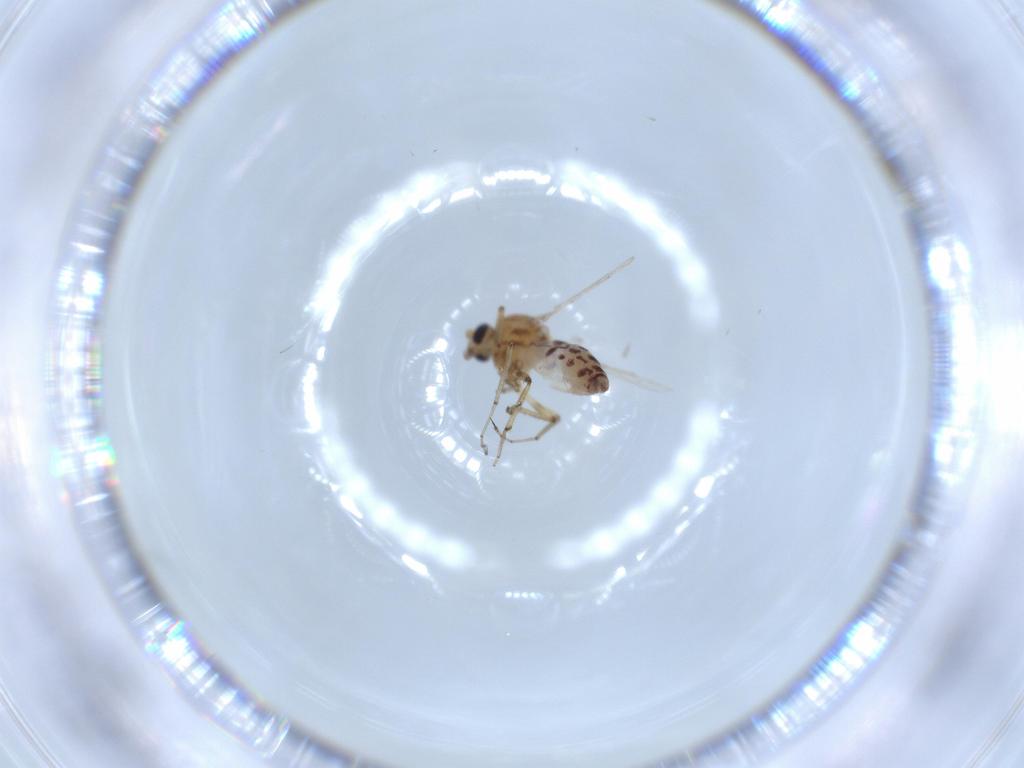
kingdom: Animalia
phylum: Arthropoda
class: Insecta
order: Diptera
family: Ceratopogonidae
